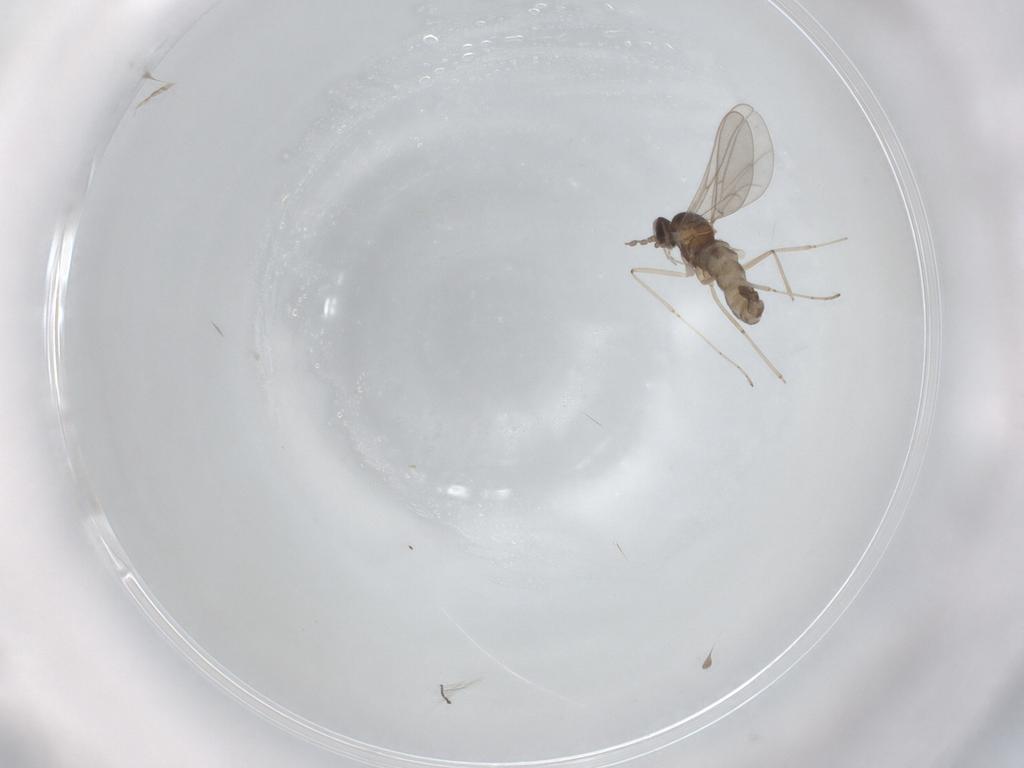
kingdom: Animalia
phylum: Arthropoda
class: Insecta
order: Diptera
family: Cecidomyiidae
